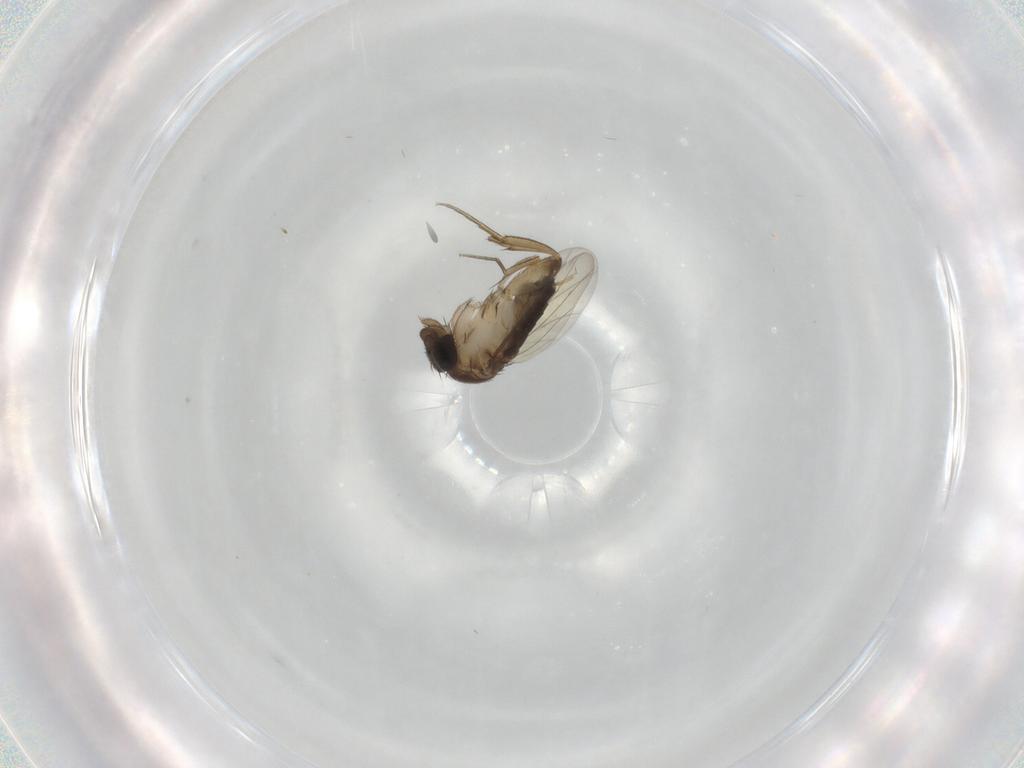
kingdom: Animalia
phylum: Arthropoda
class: Insecta
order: Diptera
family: Phoridae
